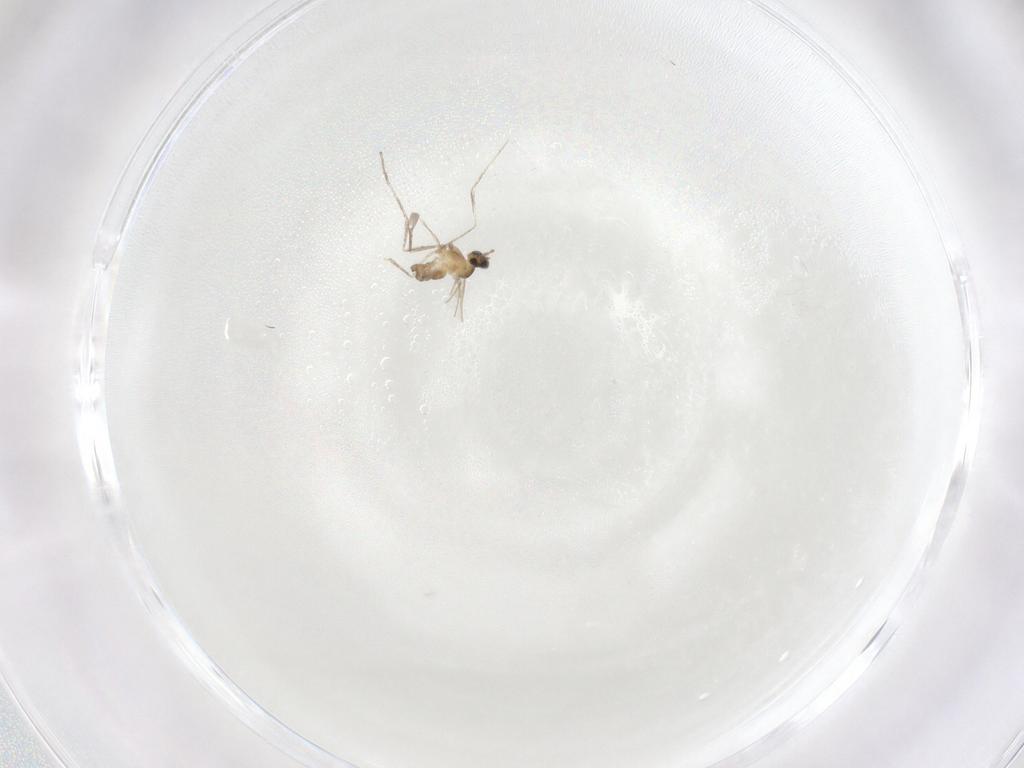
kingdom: Animalia
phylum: Arthropoda
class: Insecta
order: Diptera
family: Cecidomyiidae
